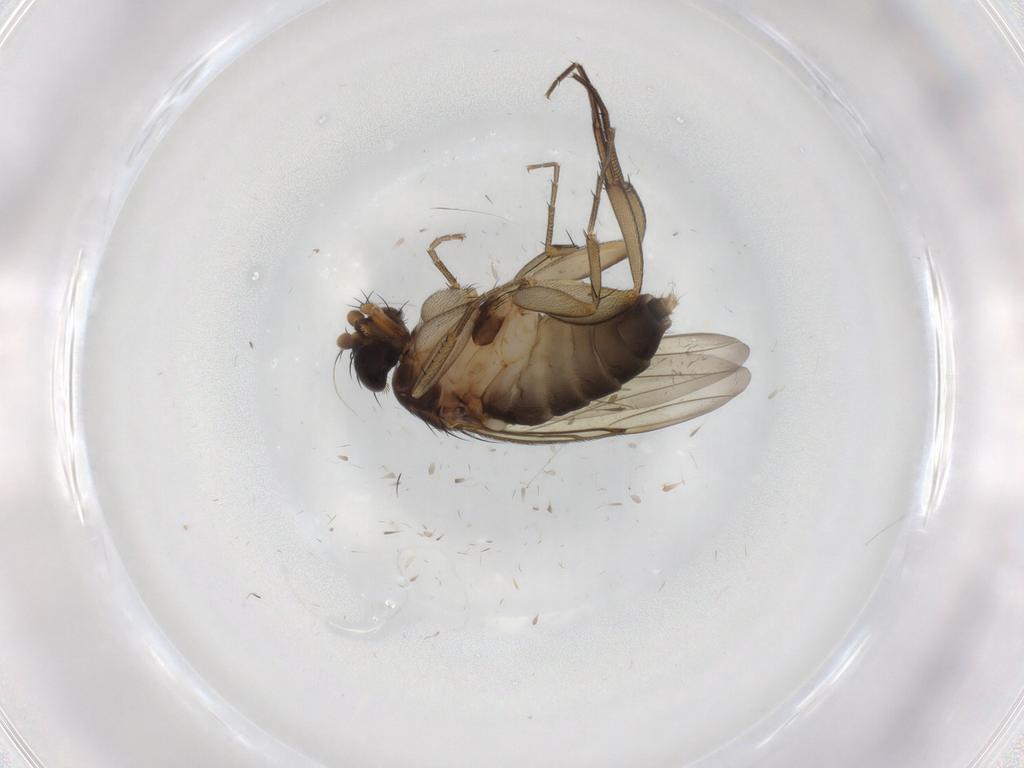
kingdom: Animalia
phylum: Arthropoda
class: Insecta
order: Diptera
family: Phoridae
